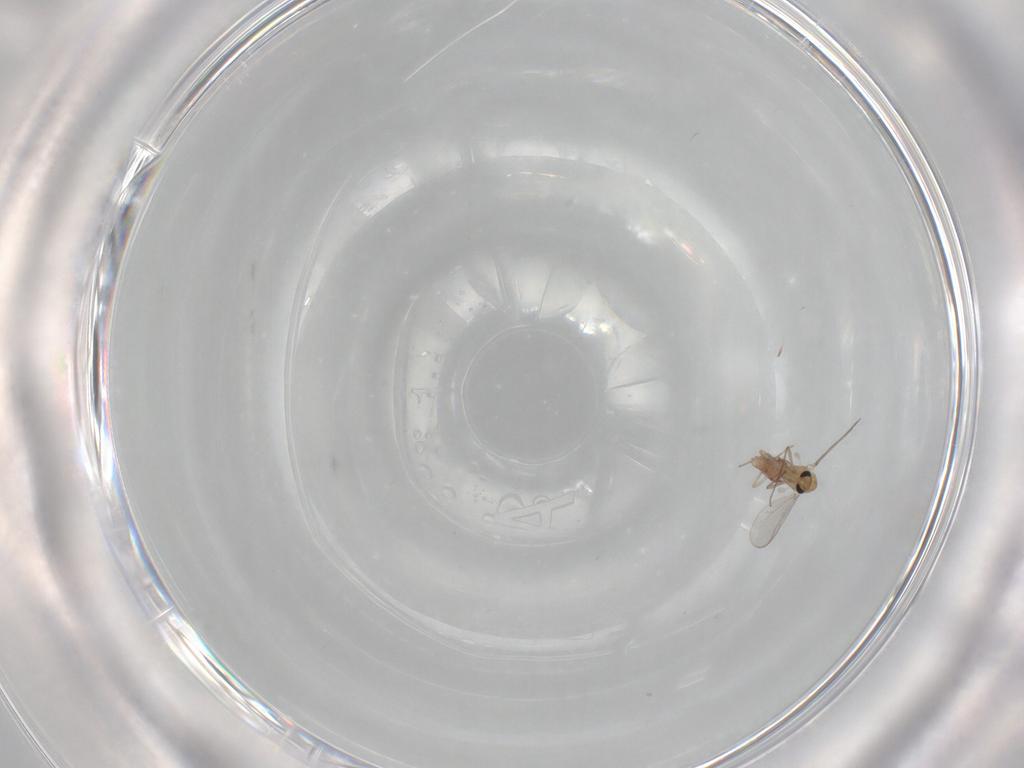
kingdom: Animalia
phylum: Arthropoda
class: Insecta
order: Diptera
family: Chironomidae
